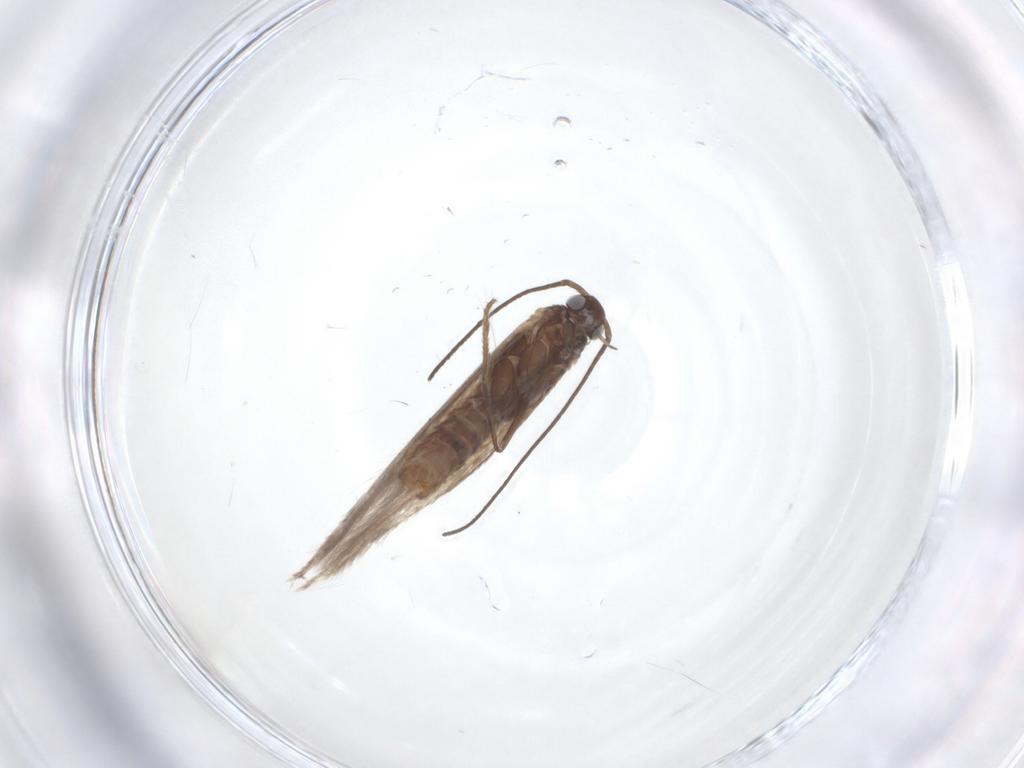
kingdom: Animalia
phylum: Arthropoda
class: Insecta
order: Lepidoptera
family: Coleophoridae
